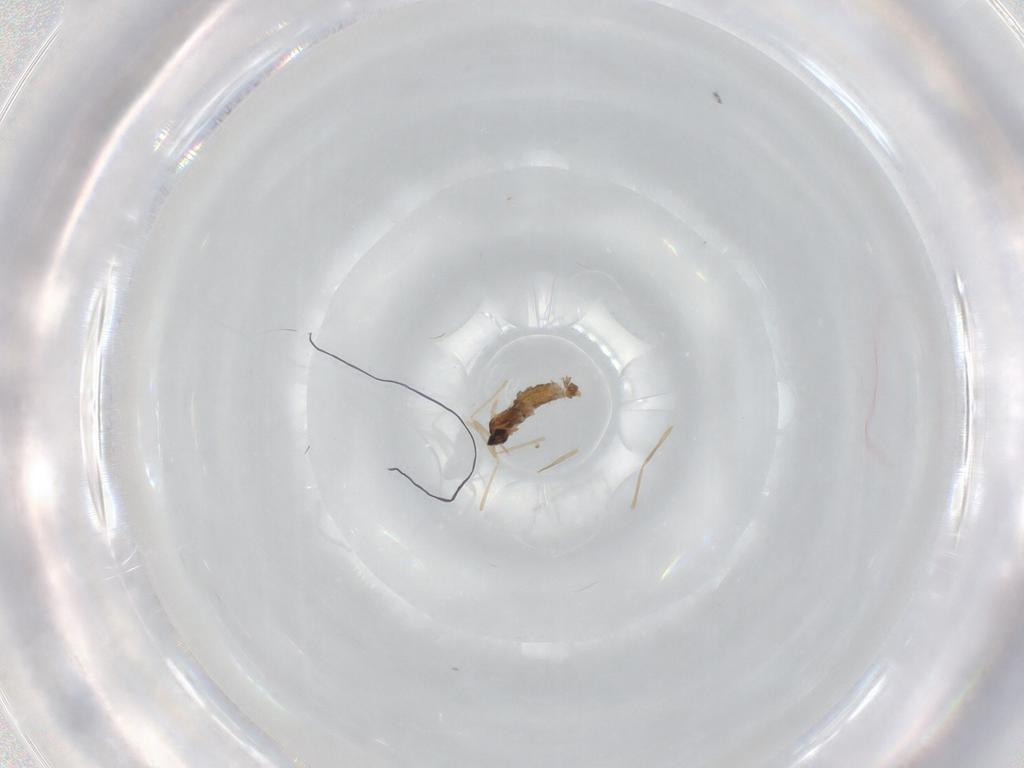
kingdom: Animalia
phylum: Arthropoda
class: Insecta
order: Diptera
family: Cecidomyiidae
